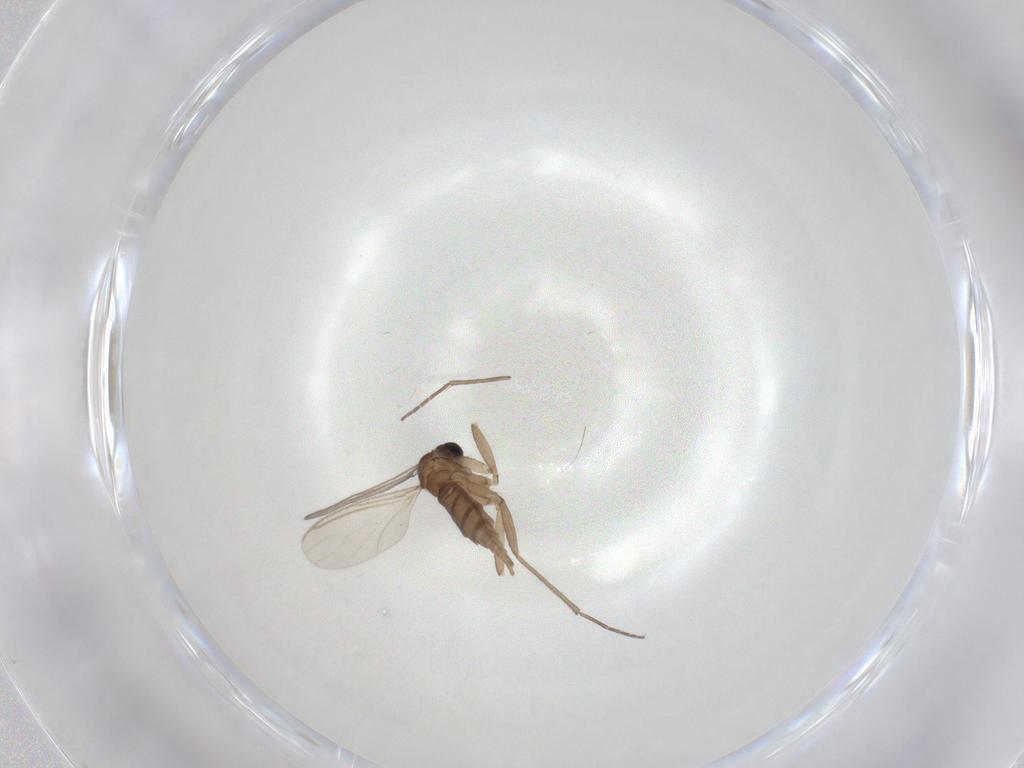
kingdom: Animalia
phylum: Arthropoda
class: Insecta
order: Diptera
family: Sciaridae
